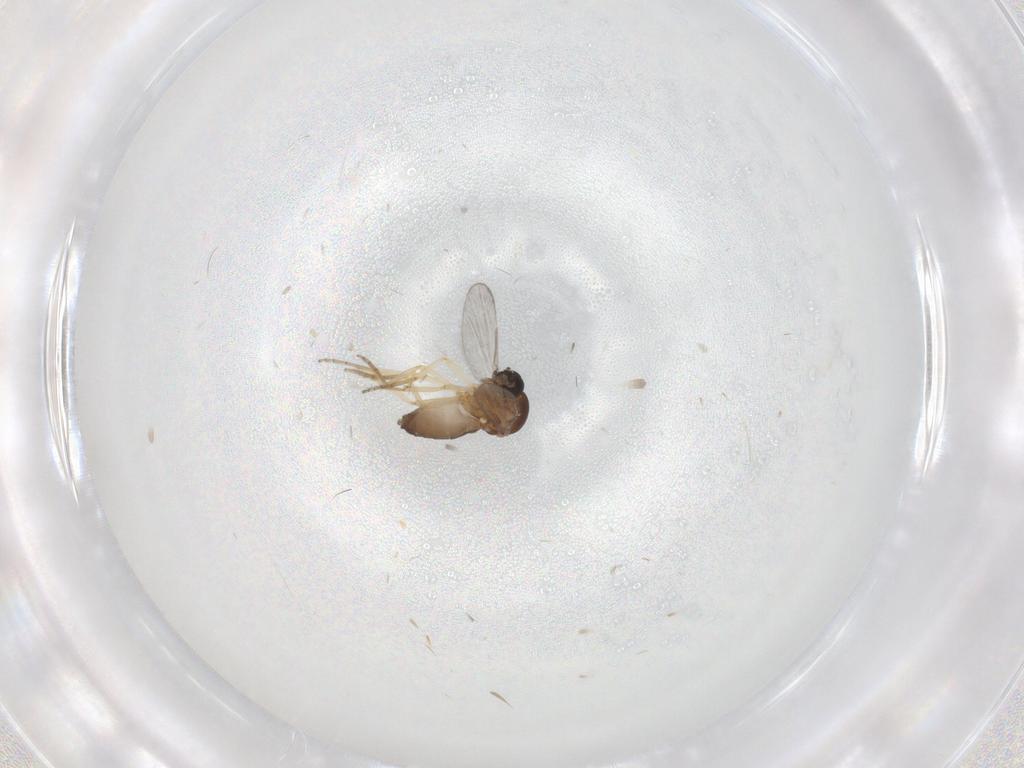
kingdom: Animalia
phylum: Arthropoda
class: Insecta
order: Diptera
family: Ceratopogonidae
